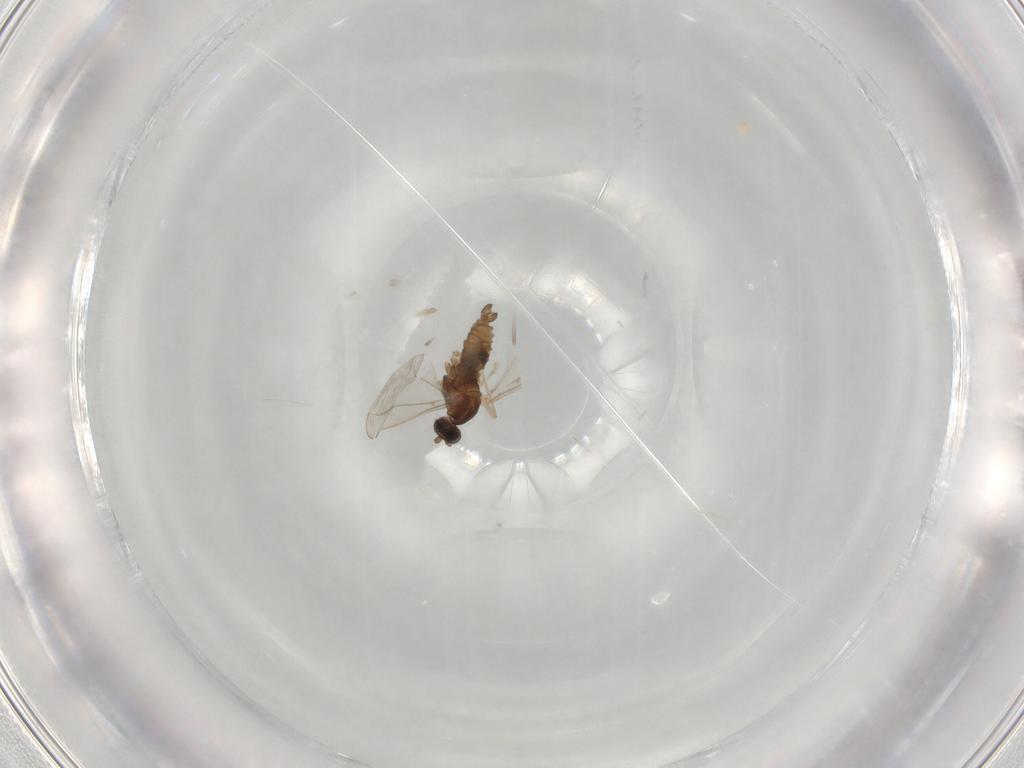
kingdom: Animalia
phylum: Arthropoda
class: Insecta
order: Diptera
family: Cecidomyiidae
